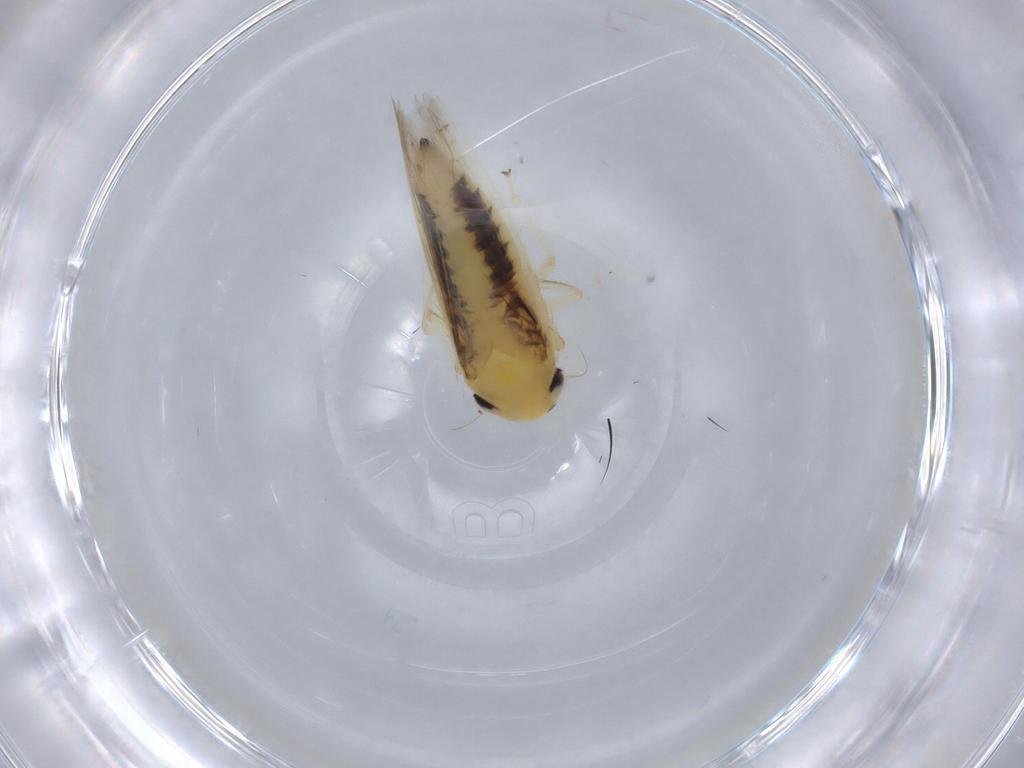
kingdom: Animalia
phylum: Arthropoda
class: Insecta
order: Hemiptera
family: Cicadellidae
